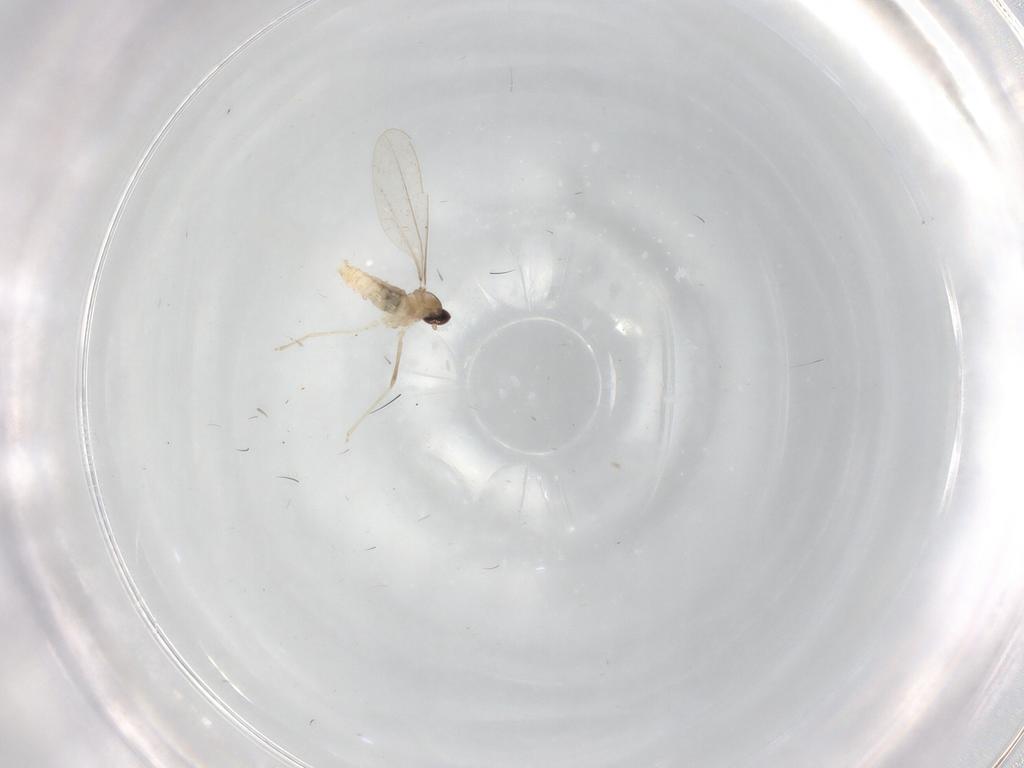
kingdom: Animalia
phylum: Arthropoda
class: Insecta
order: Diptera
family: Cecidomyiidae
